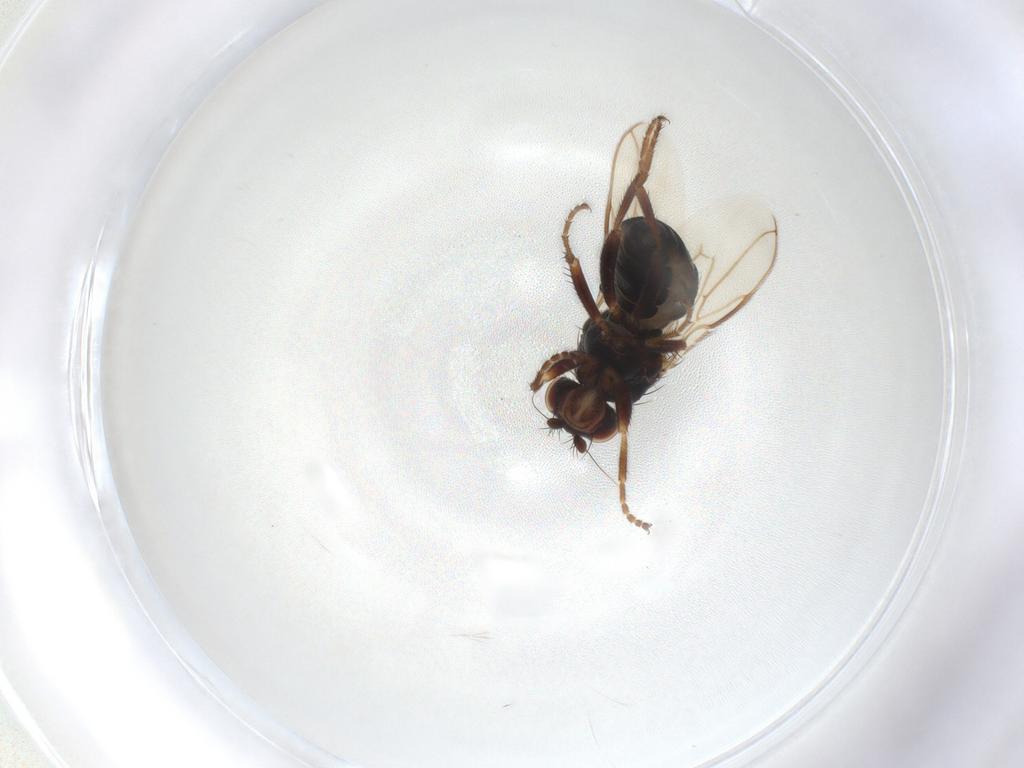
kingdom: Animalia
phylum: Arthropoda
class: Insecta
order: Diptera
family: Sphaeroceridae
